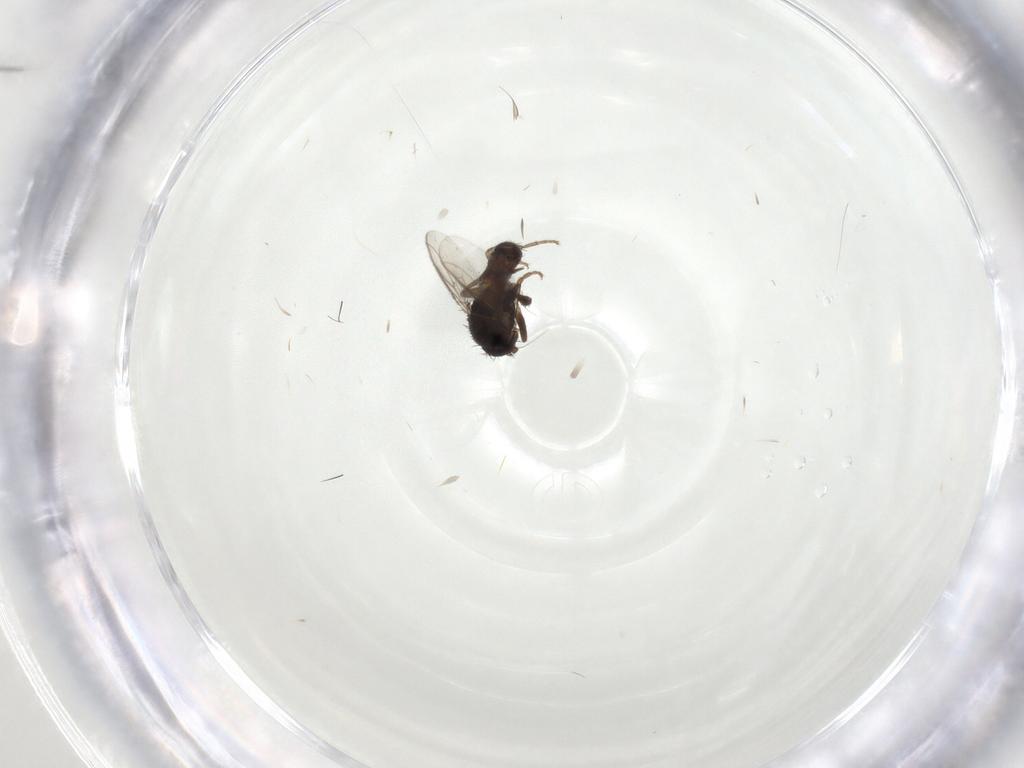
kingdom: Animalia
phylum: Arthropoda
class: Insecta
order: Diptera
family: Sphaeroceridae
